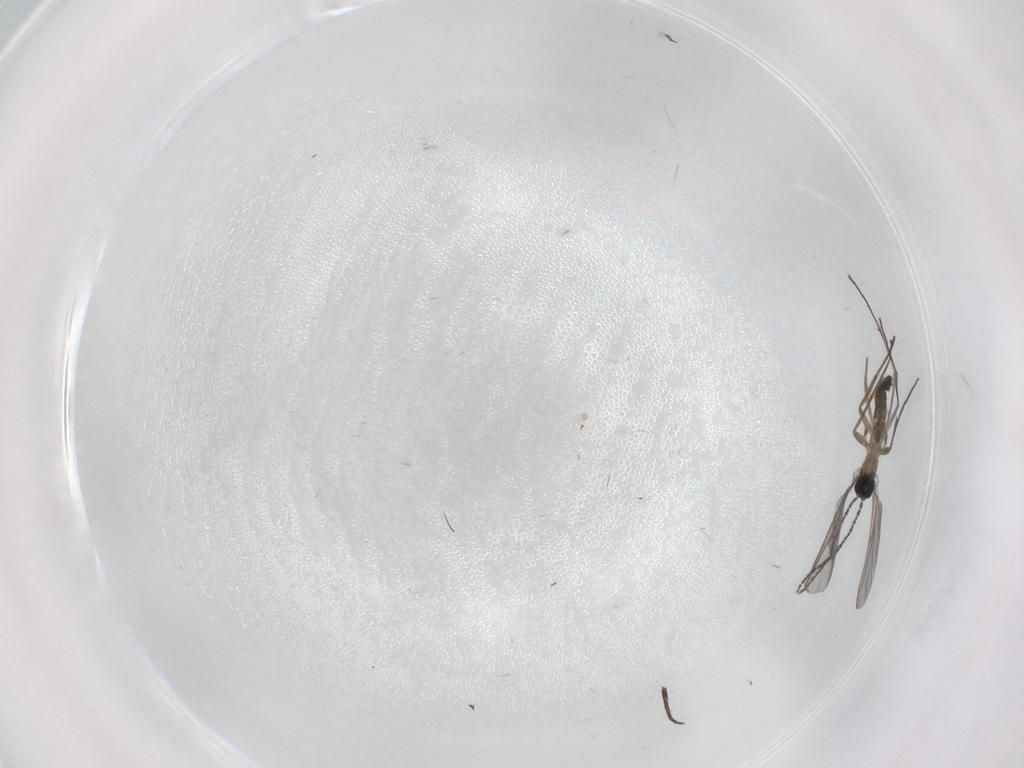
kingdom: Animalia
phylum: Arthropoda
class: Insecta
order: Diptera
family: Sciaridae
